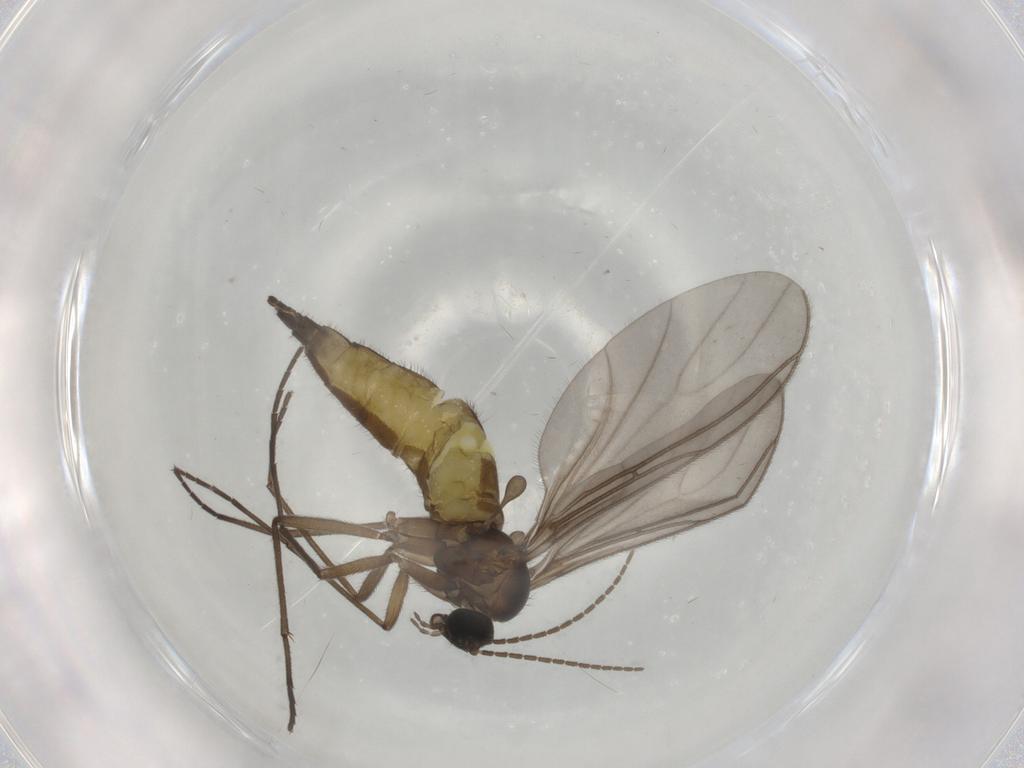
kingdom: Animalia
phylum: Arthropoda
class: Insecta
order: Diptera
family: Sciaridae
